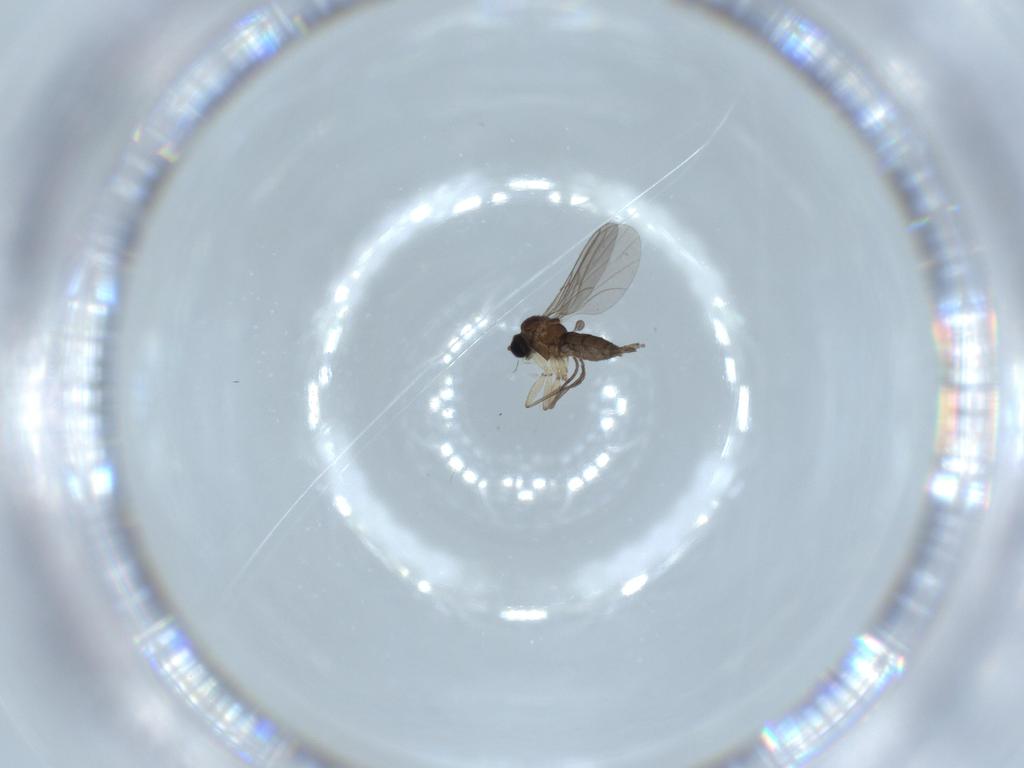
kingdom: Animalia
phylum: Arthropoda
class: Insecta
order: Diptera
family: Sciaridae
